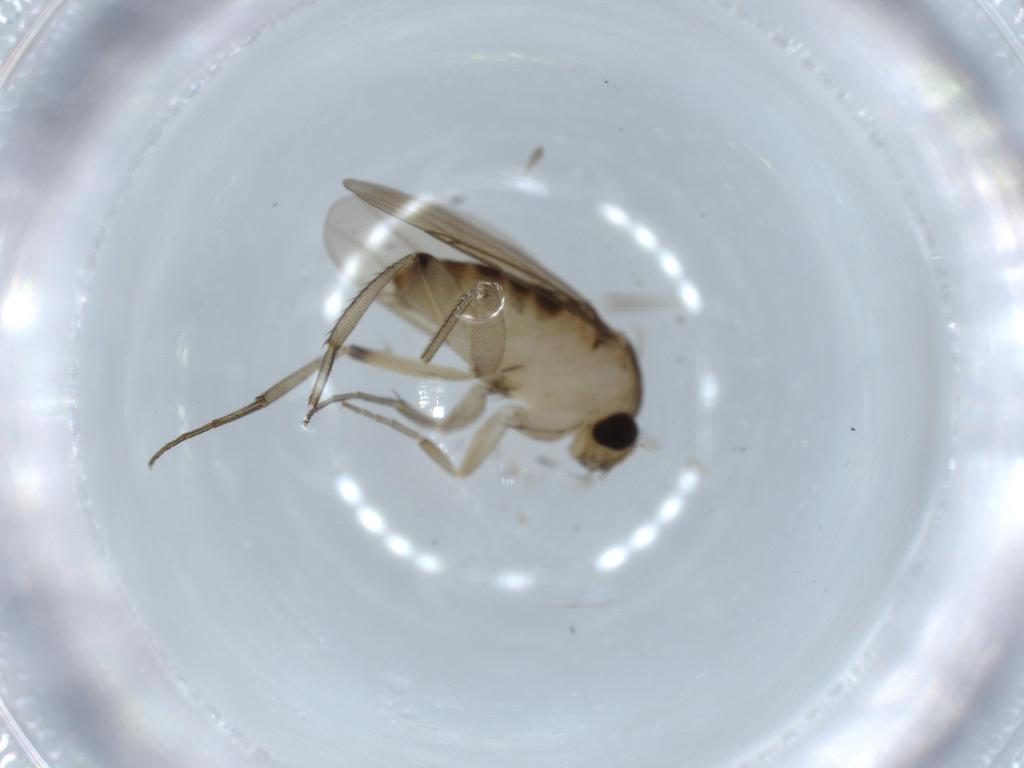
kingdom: Animalia
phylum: Arthropoda
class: Insecta
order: Diptera
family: Phoridae
